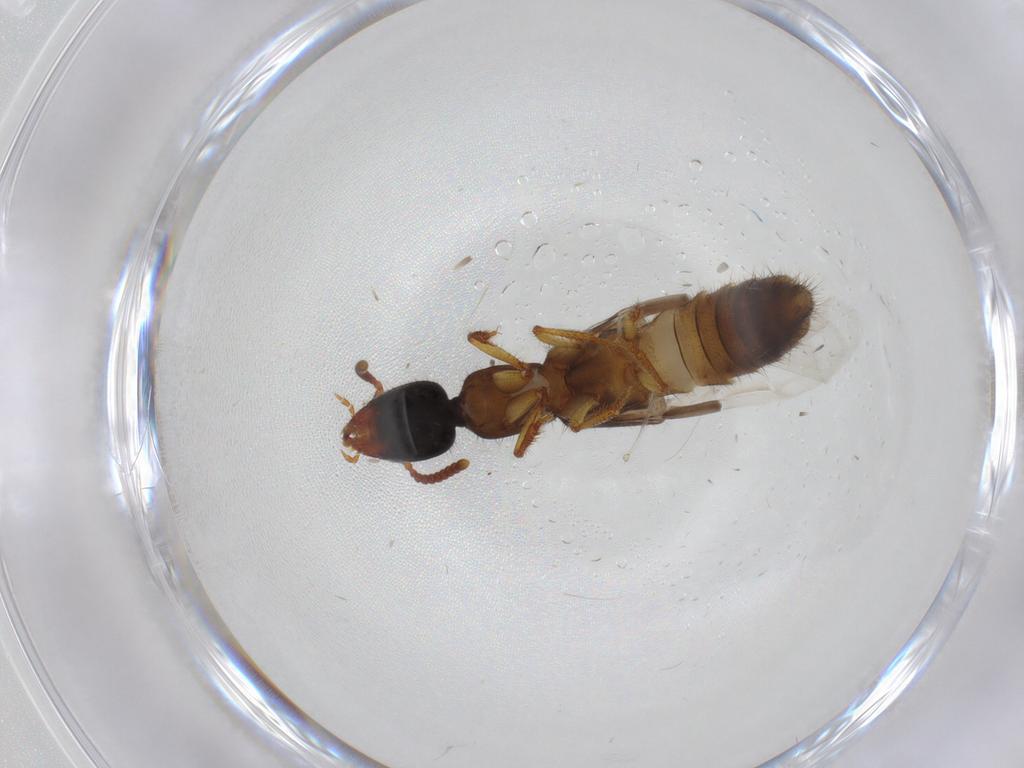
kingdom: Animalia
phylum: Arthropoda
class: Insecta
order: Coleoptera
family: Staphylinidae
